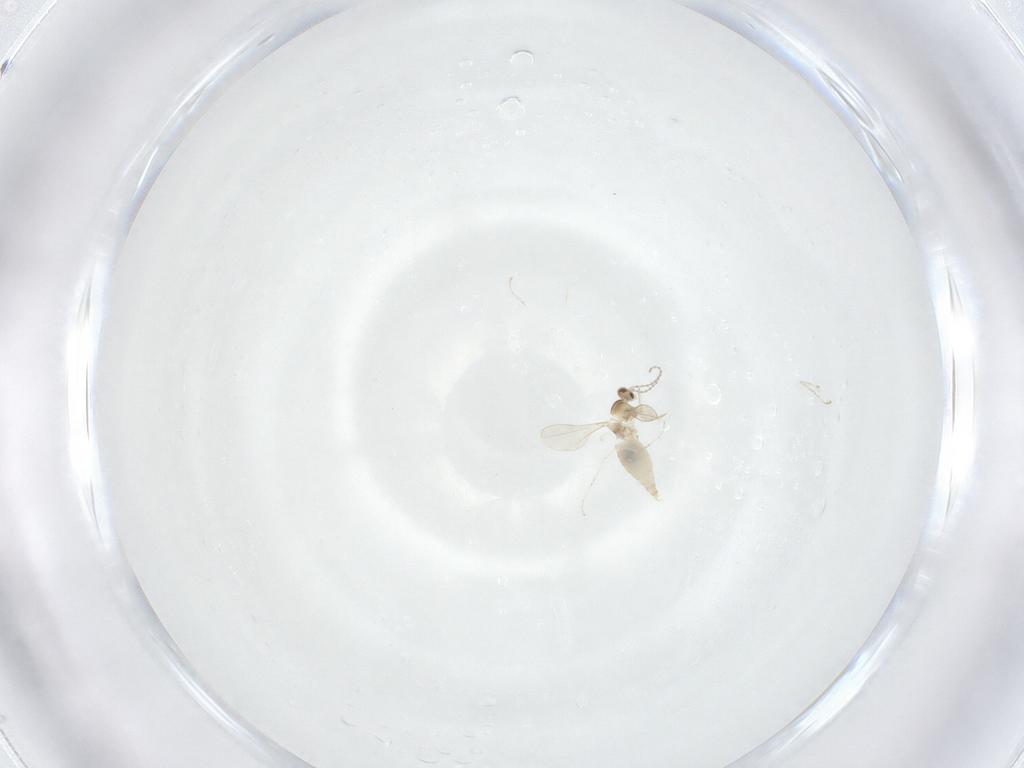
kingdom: Animalia
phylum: Arthropoda
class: Insecta
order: Diptera
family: Cecidomyiidae
